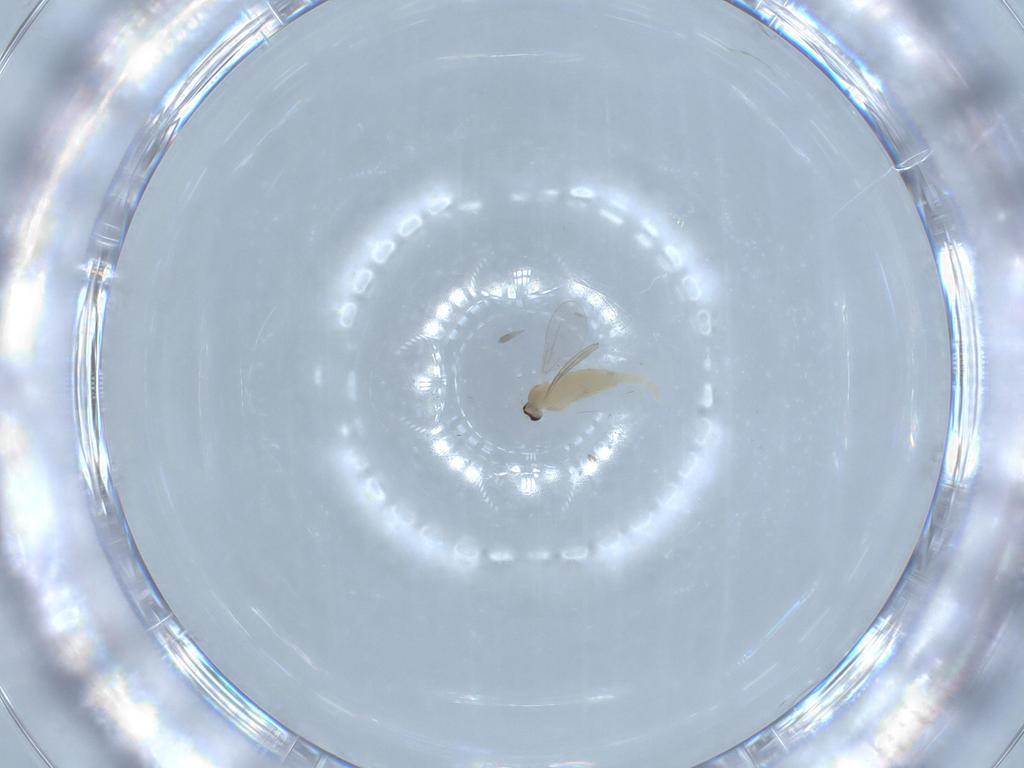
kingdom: Animalia
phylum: Arthropoda
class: Insecta
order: Diptera
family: Cecidomyiidae
